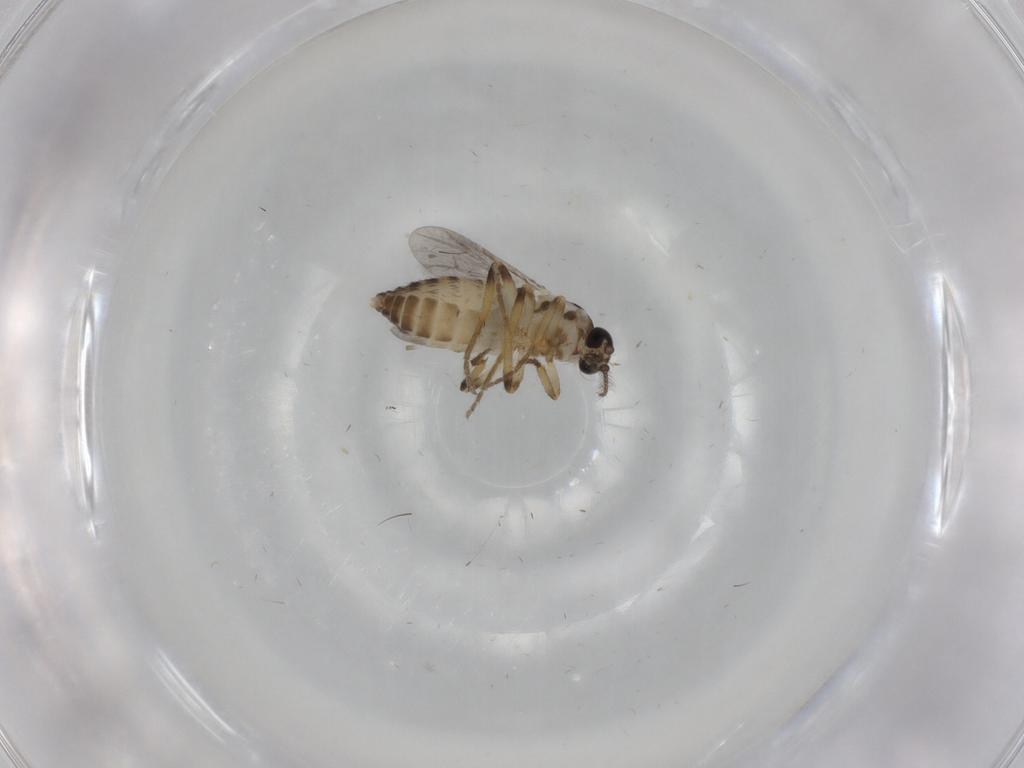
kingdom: Animalia
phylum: Arthropoda
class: Insecta
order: Diptera
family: Ceratopogonidae
